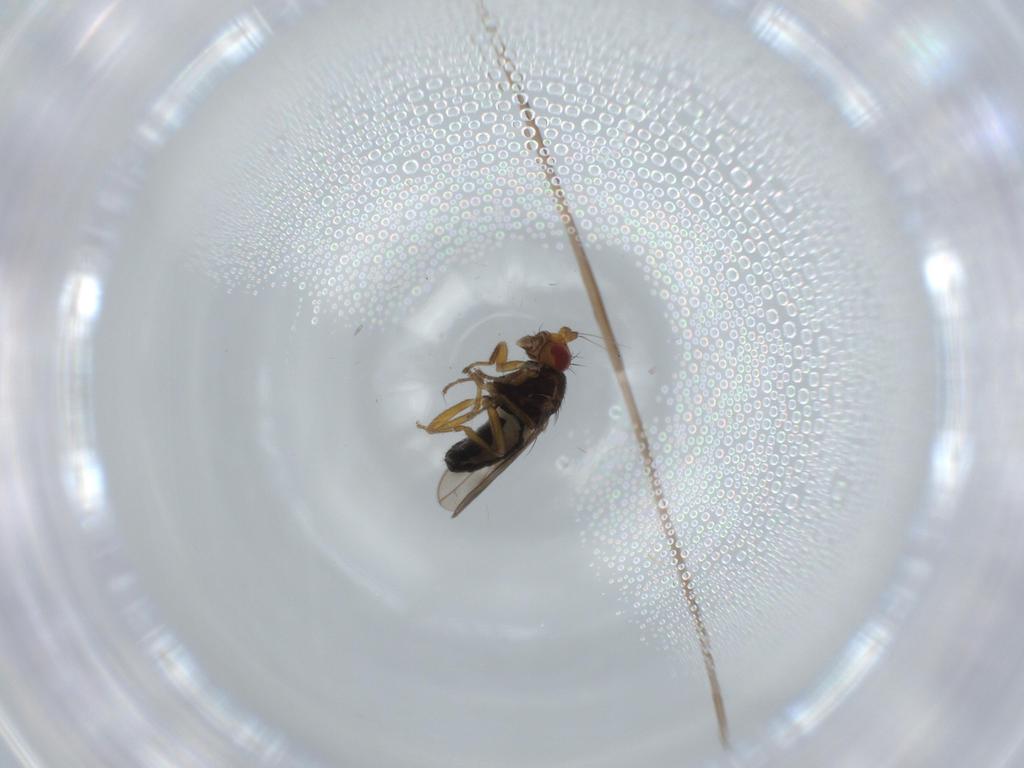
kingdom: Animalia
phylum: Arthropoda
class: Insecta
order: Diptera
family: Sphaeroceridae
